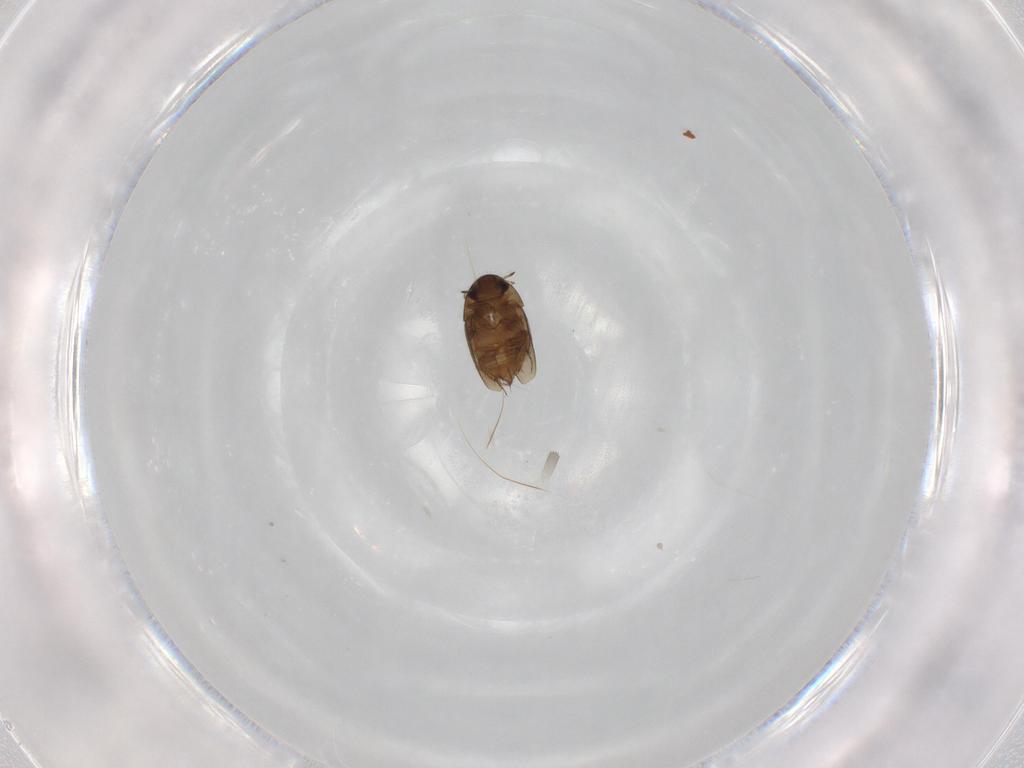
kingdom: Animalia
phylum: Arthropoda
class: Insecta
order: Coleoptera
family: Hydraenidae
